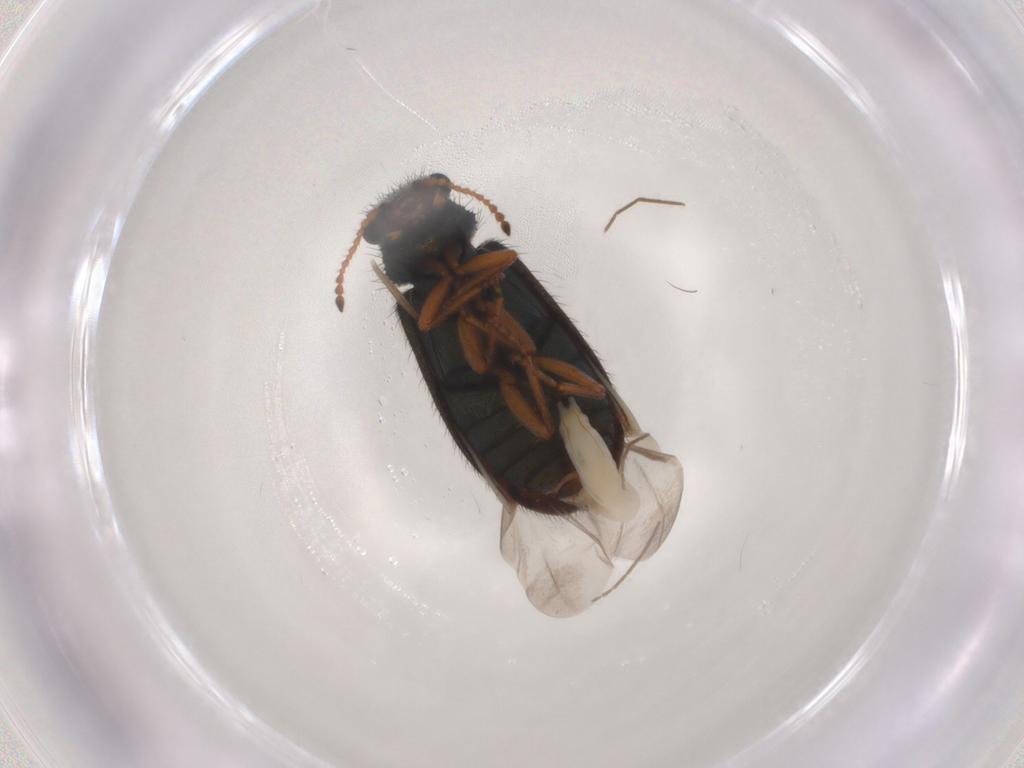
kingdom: Animalia
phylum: Arthropoda
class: Insecta
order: Coleoptera
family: Melyridae
